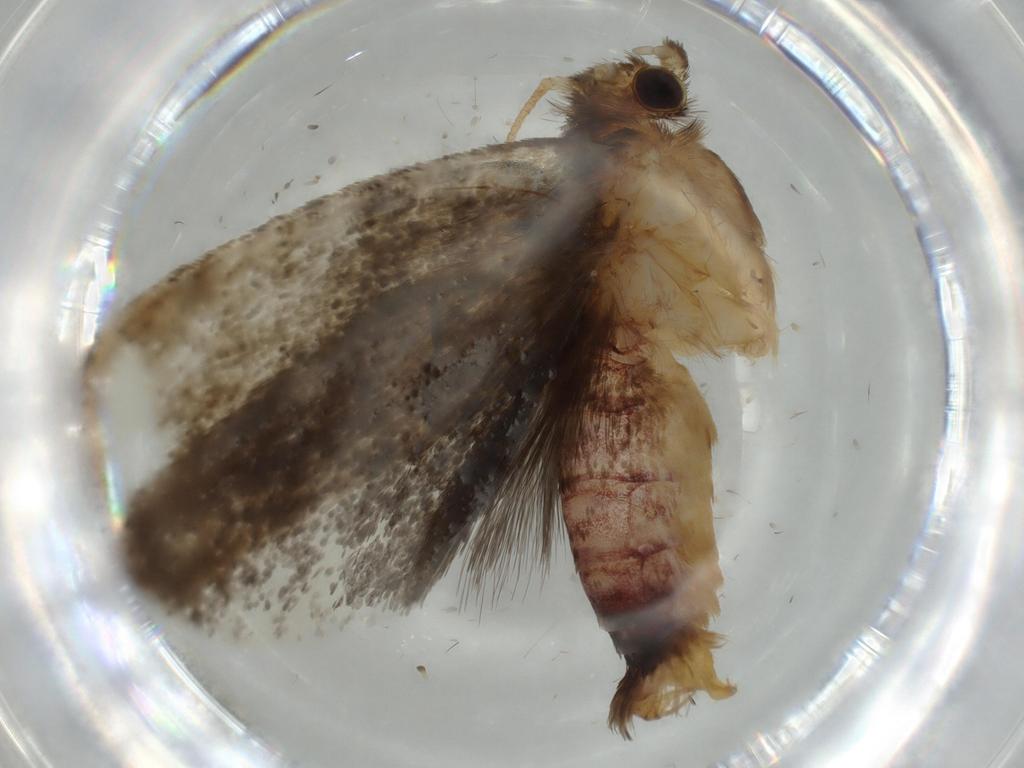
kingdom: Animalia
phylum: Arthropoda
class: Insecta
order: Lepidoptera
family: Tineidae
